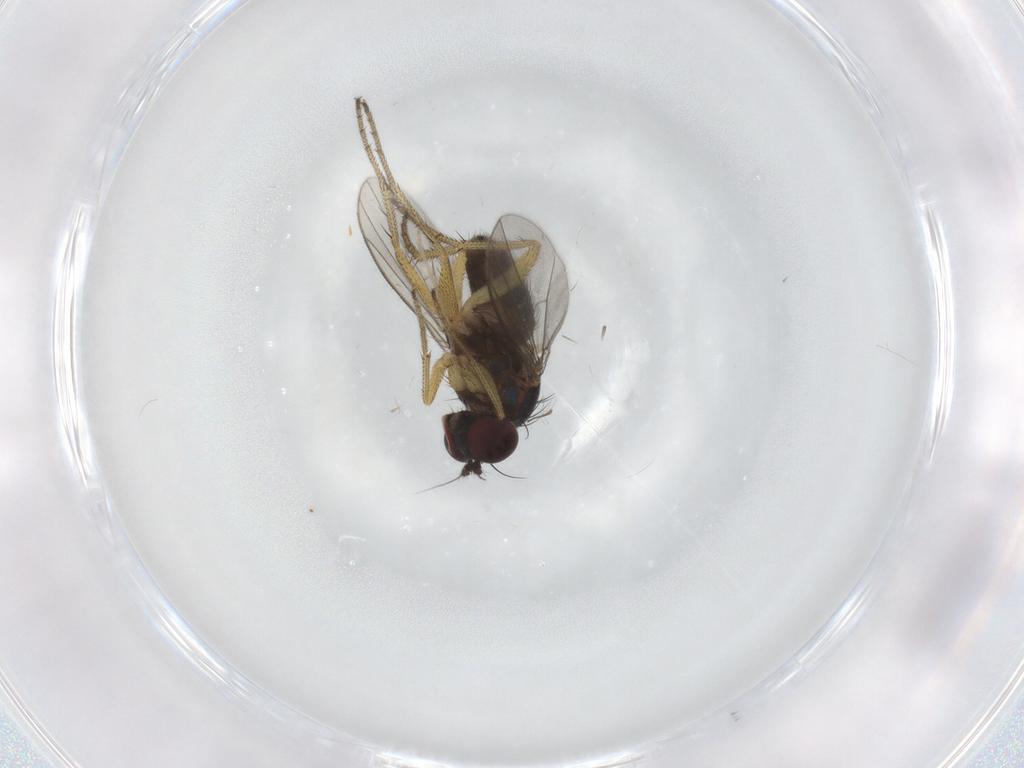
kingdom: Animalia
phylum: Arthropoda
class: Insecta
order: Diptera
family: Dolichopodidae
